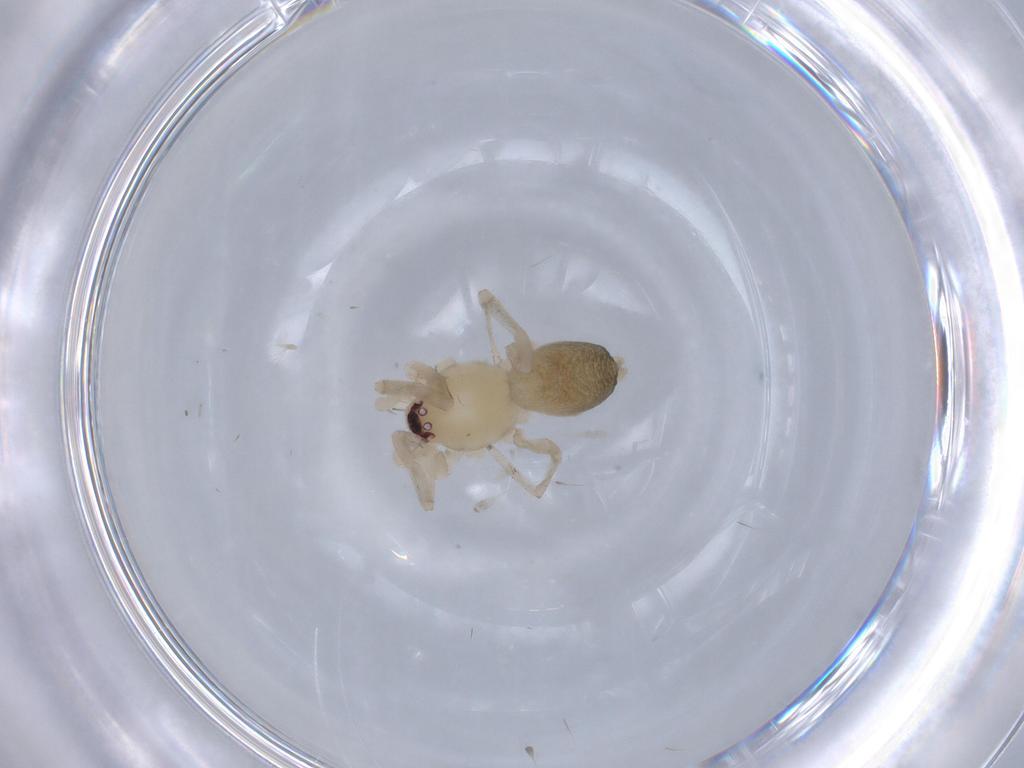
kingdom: Animalia
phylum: Arthropoda
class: Arachnida
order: Araneae
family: Corinnidae
